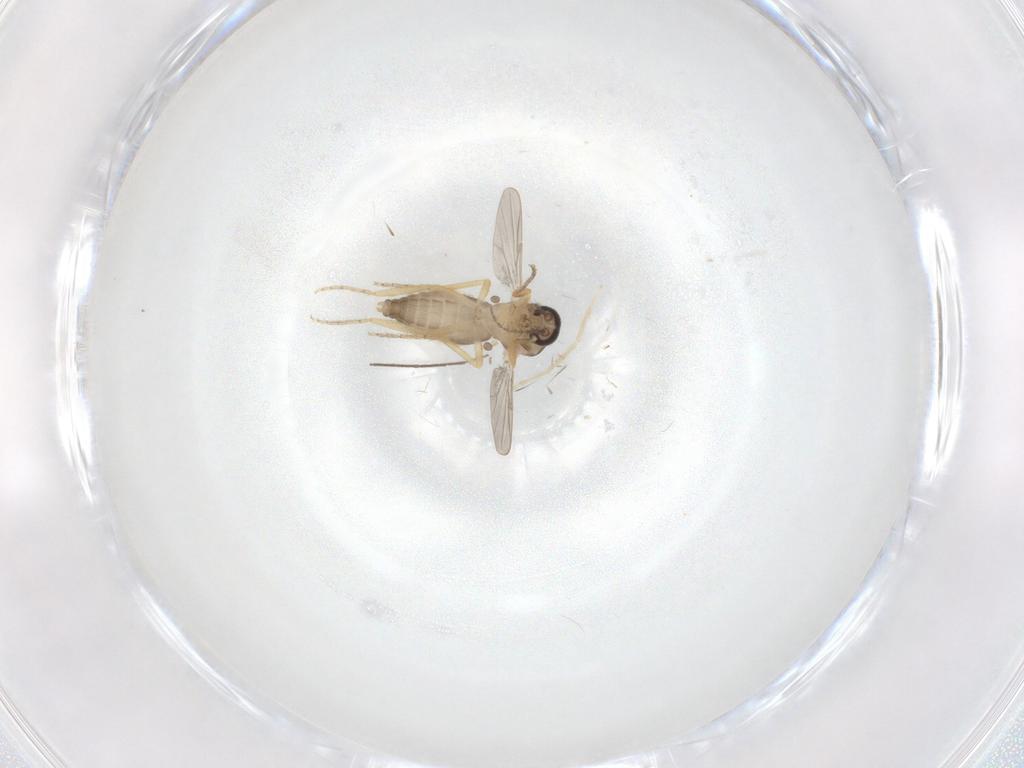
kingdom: Animalia
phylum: Arthropoda
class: Insecta
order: Diptera
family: Ceratopogonidae
